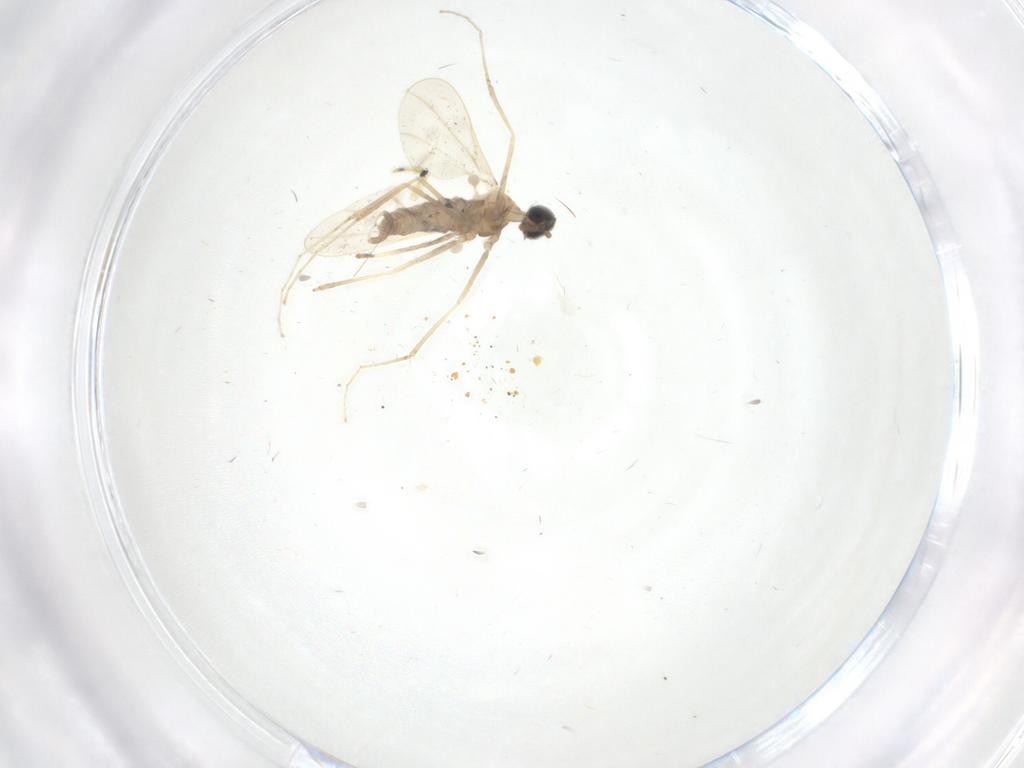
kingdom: Animalia
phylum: Arthropoda
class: Insecta
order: Diptera
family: Cecidomyiidae
